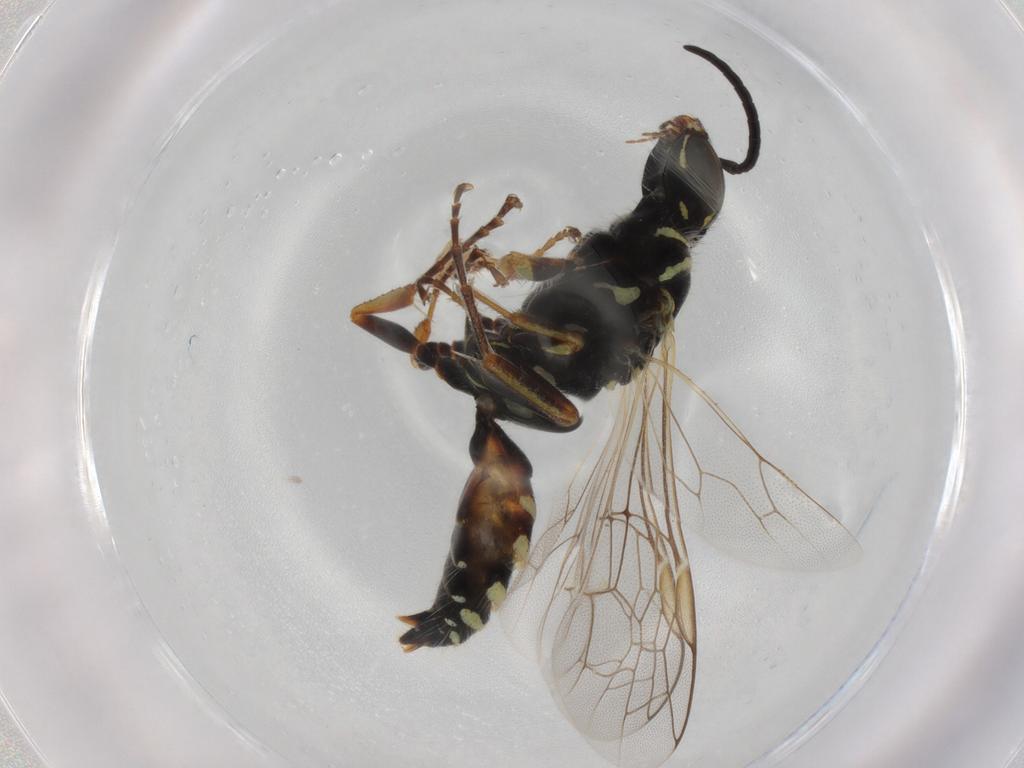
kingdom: Animalia
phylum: Arthropoda
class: Insecta
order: Hymenoptera
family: Thynnidae
